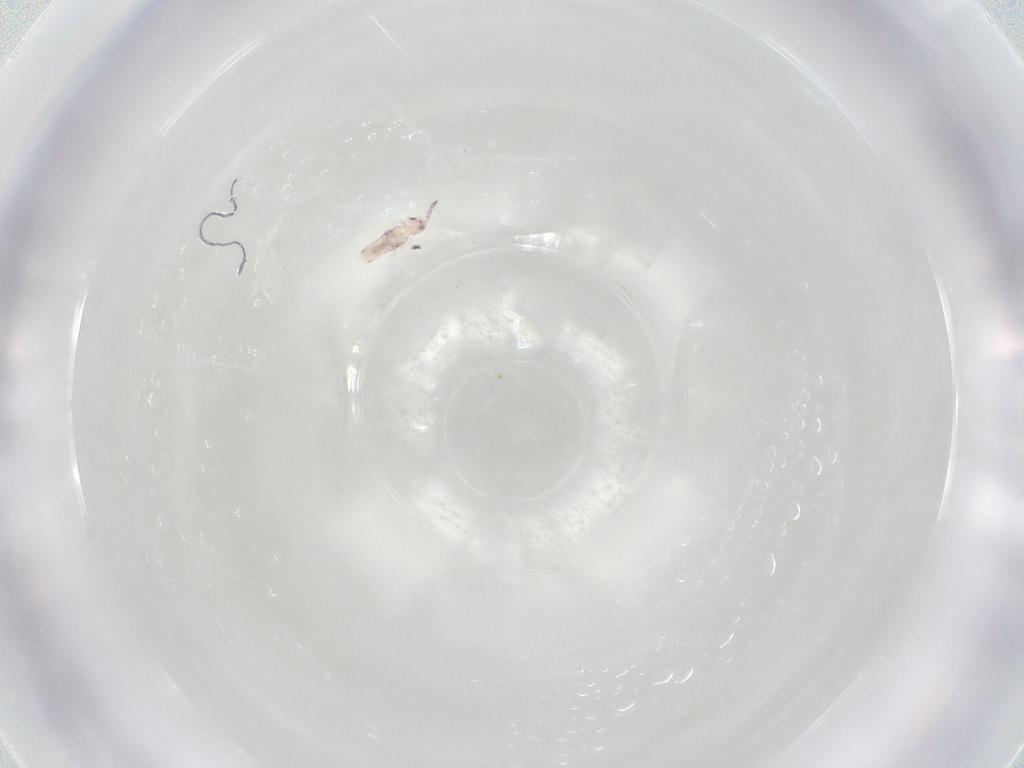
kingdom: Animalia
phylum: Arthropoda
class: Collembola
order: Entomobryomorpha
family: Entomobryidae
